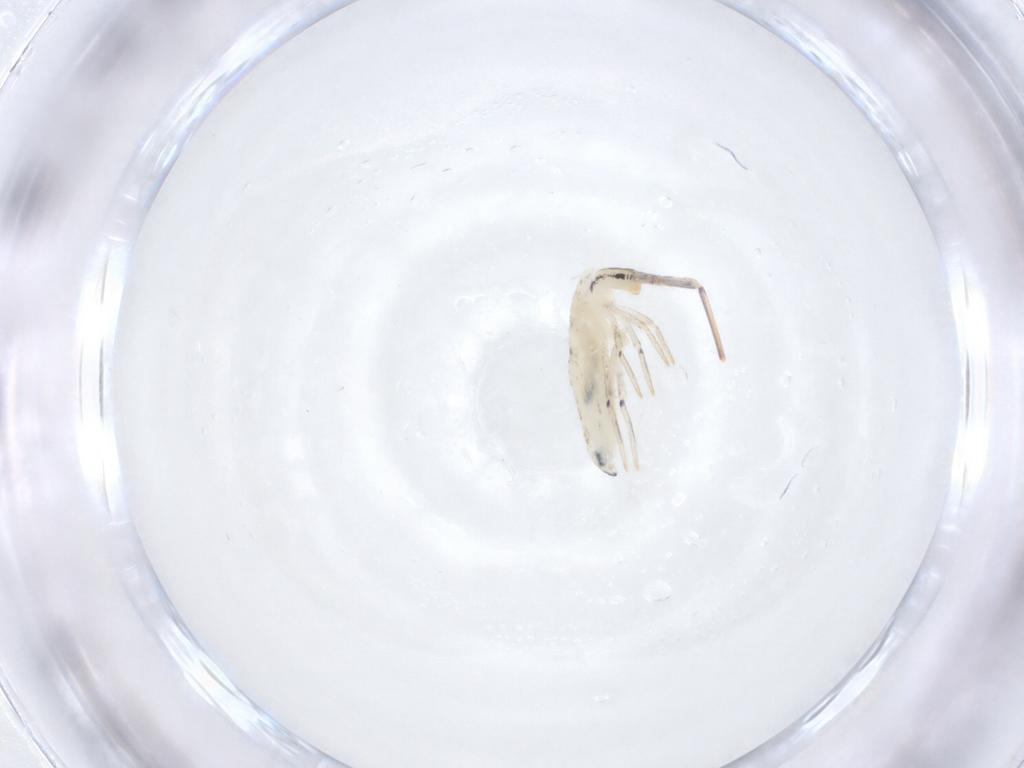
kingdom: Animalia
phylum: Arthropoda
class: Collembola
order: Entomobryomorpha
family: Entomobryidae
